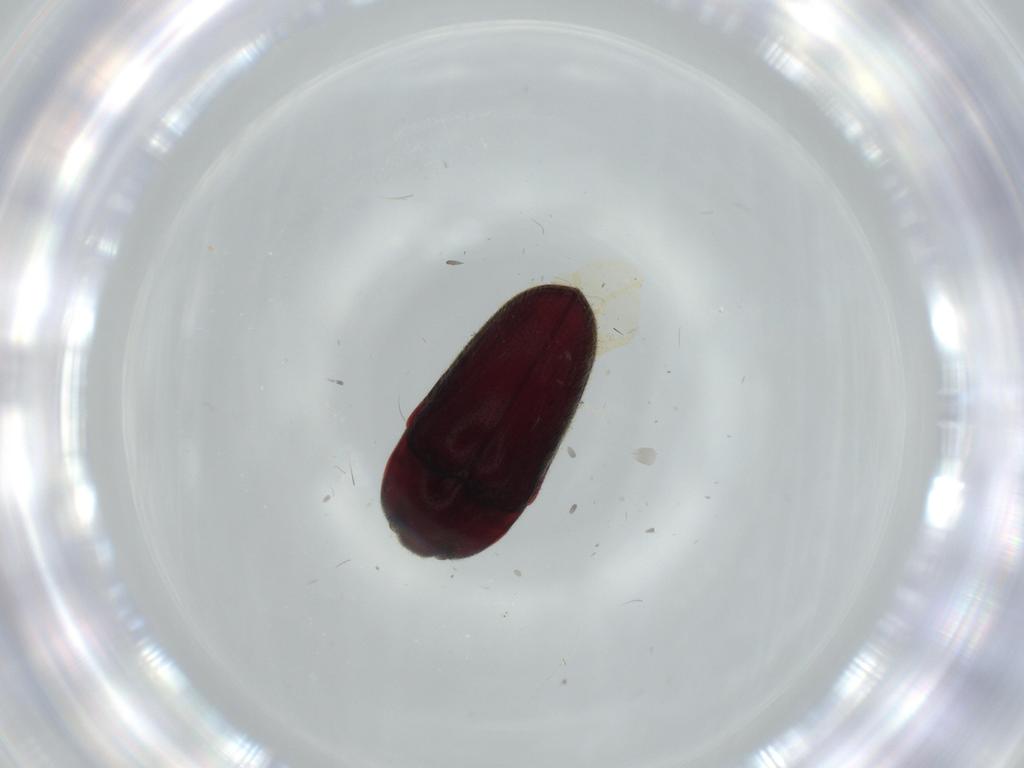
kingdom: Animalia
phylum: Arthropoda
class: Insecta
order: Coleoptera
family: Throscidae
